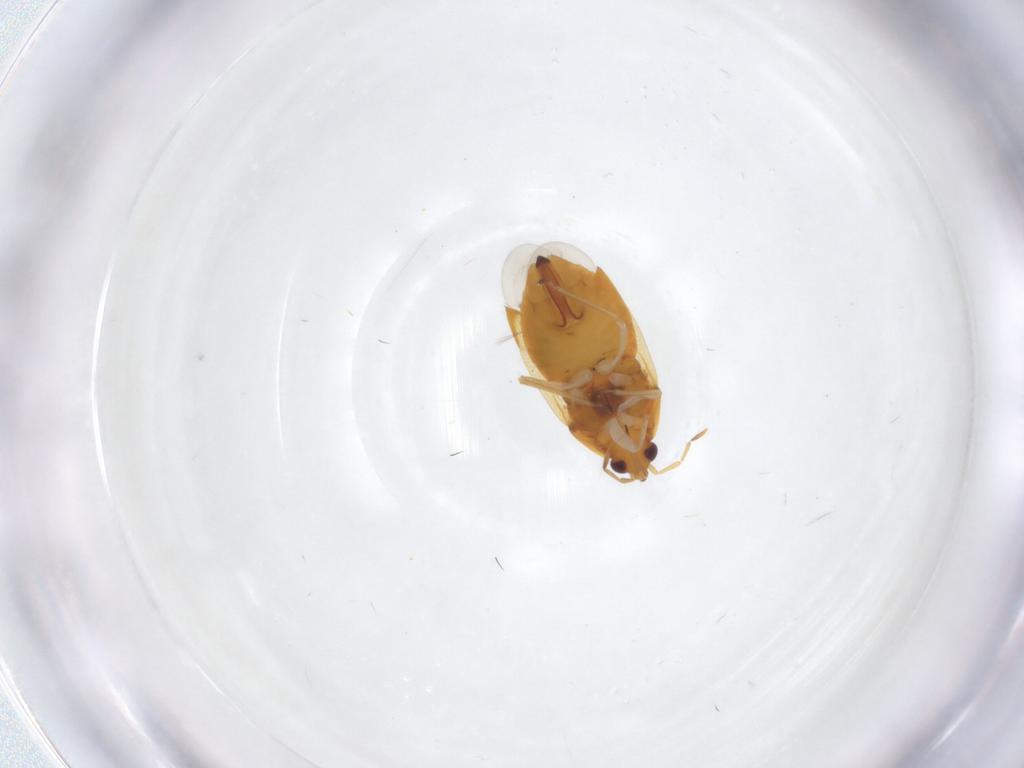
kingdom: Animalia
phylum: Arthropoda
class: Insecta
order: Hemiptera
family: Anthocoridae
